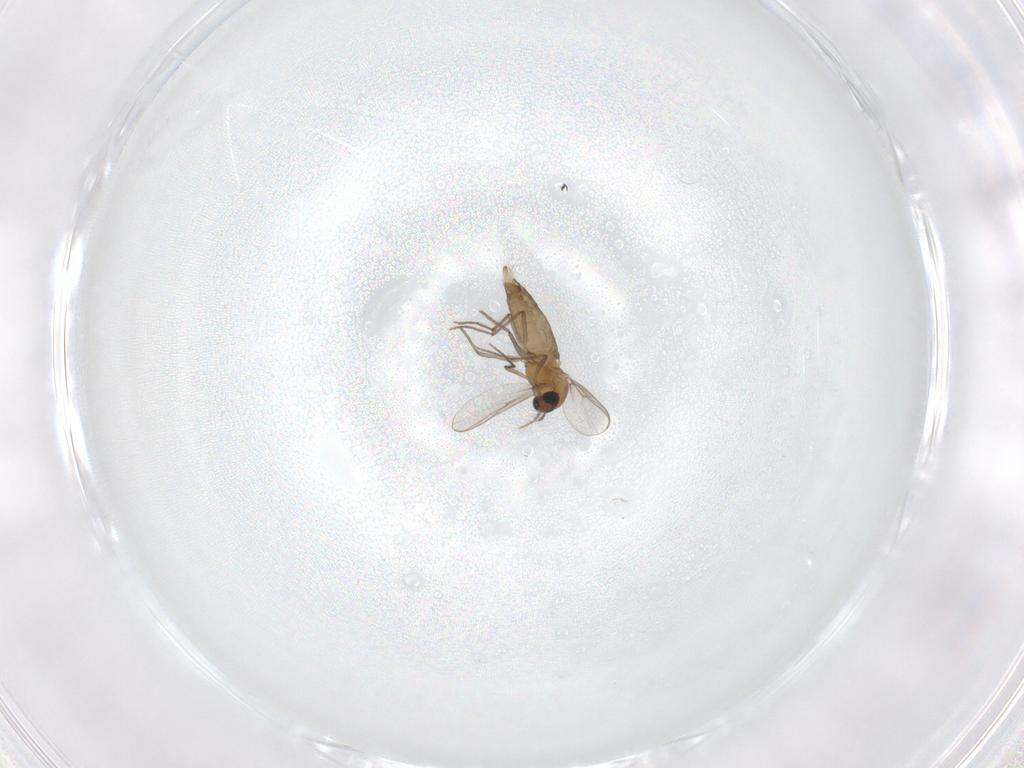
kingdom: Animalia
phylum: Arthropoda
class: Insecta
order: Diptera
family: Chironomidae
